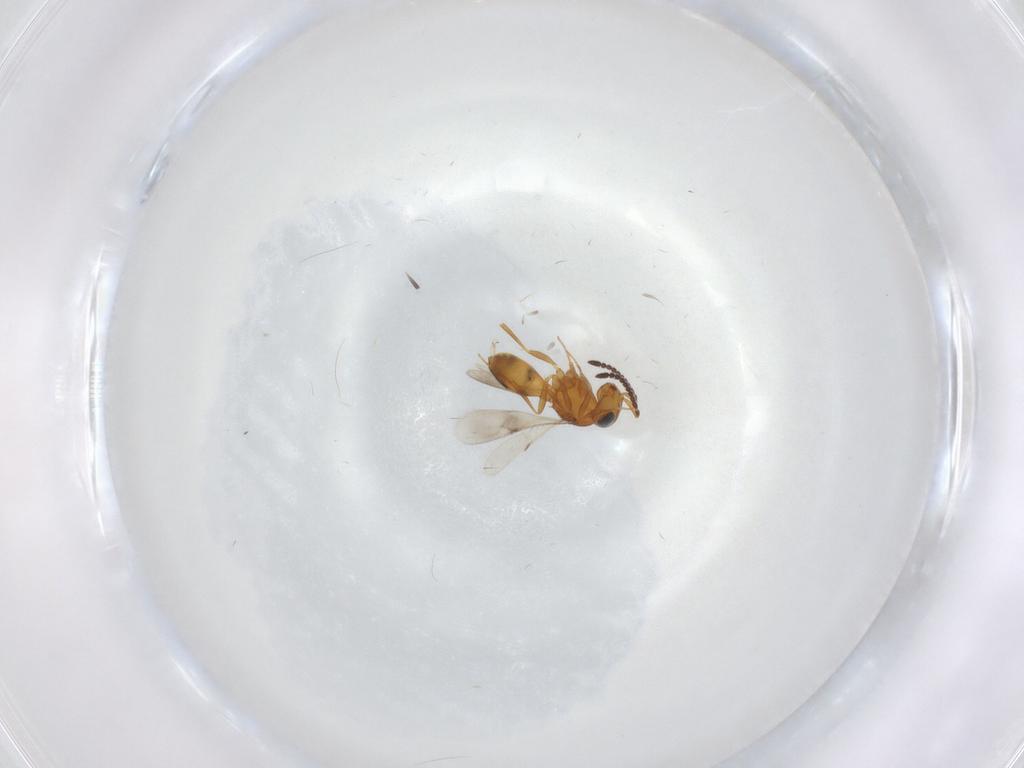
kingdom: Animalia
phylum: Arthropoda
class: Insecta
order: Hymenoptera
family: Scelionidae
